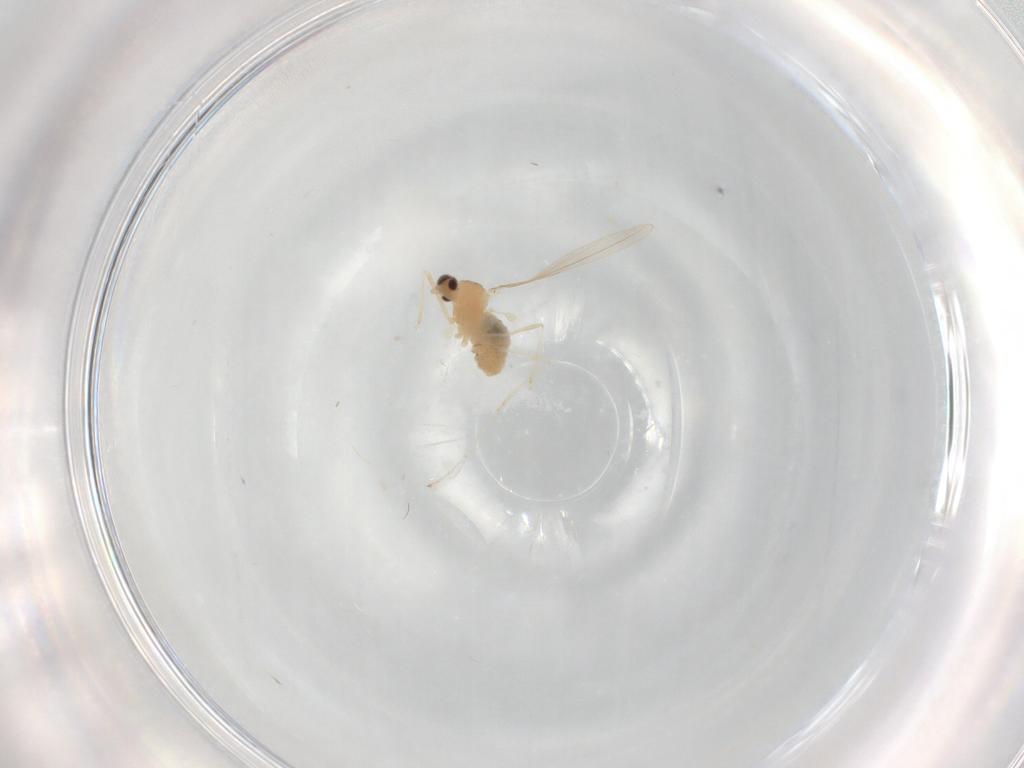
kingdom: Animalia
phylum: Arthropoda
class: Insecta
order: Diptera
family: Cecidomyiidae
